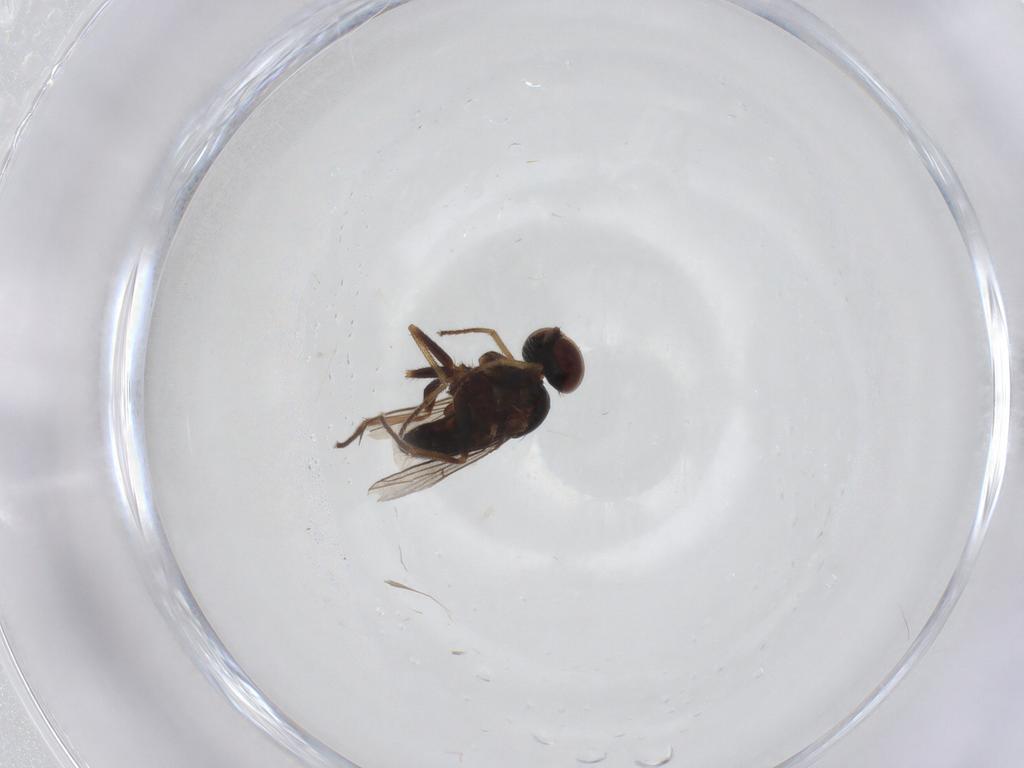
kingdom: Animalia
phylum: Arthropoda
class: Insecta
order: Diptera
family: Dolichopodidae
